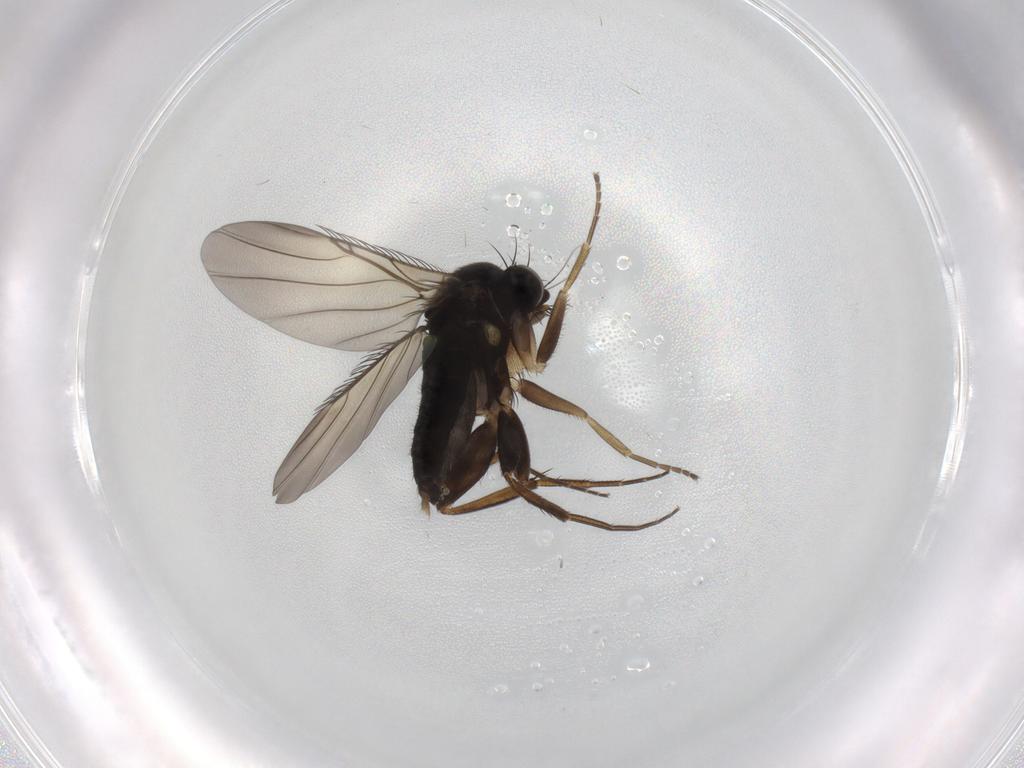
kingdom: Animalia
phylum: Arthropoda
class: Insecta
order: Diptera
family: Phoridae
